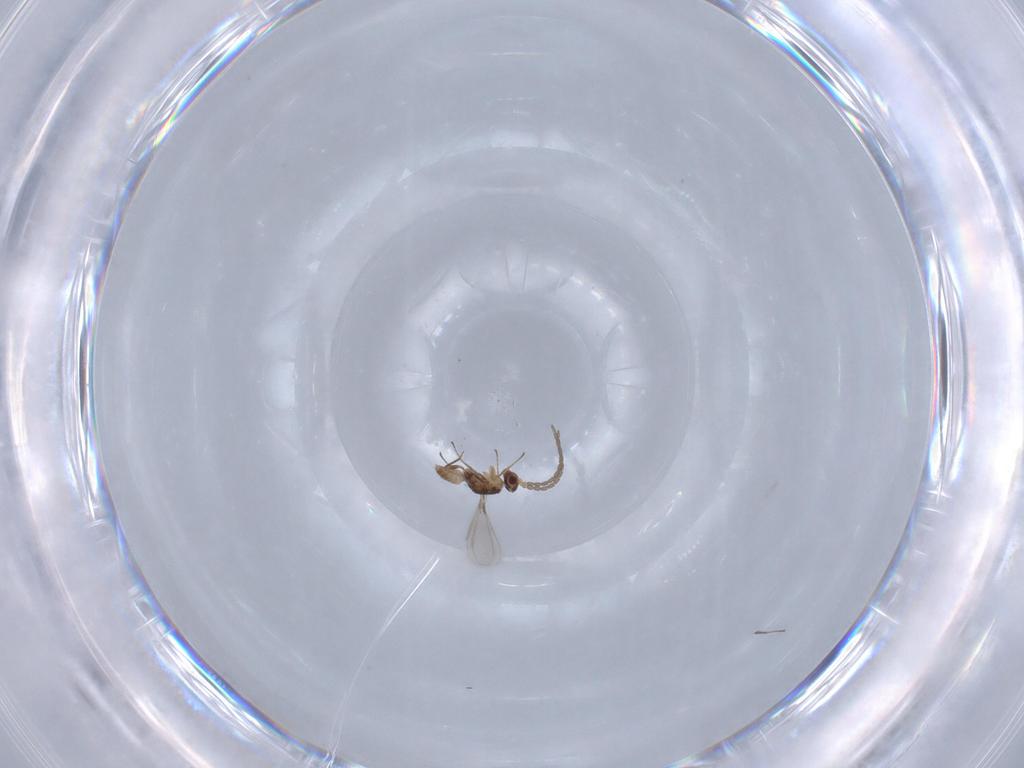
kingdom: Animalia
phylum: Arthropoda
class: Insecta
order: Hymenoptera
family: Mymaridae
